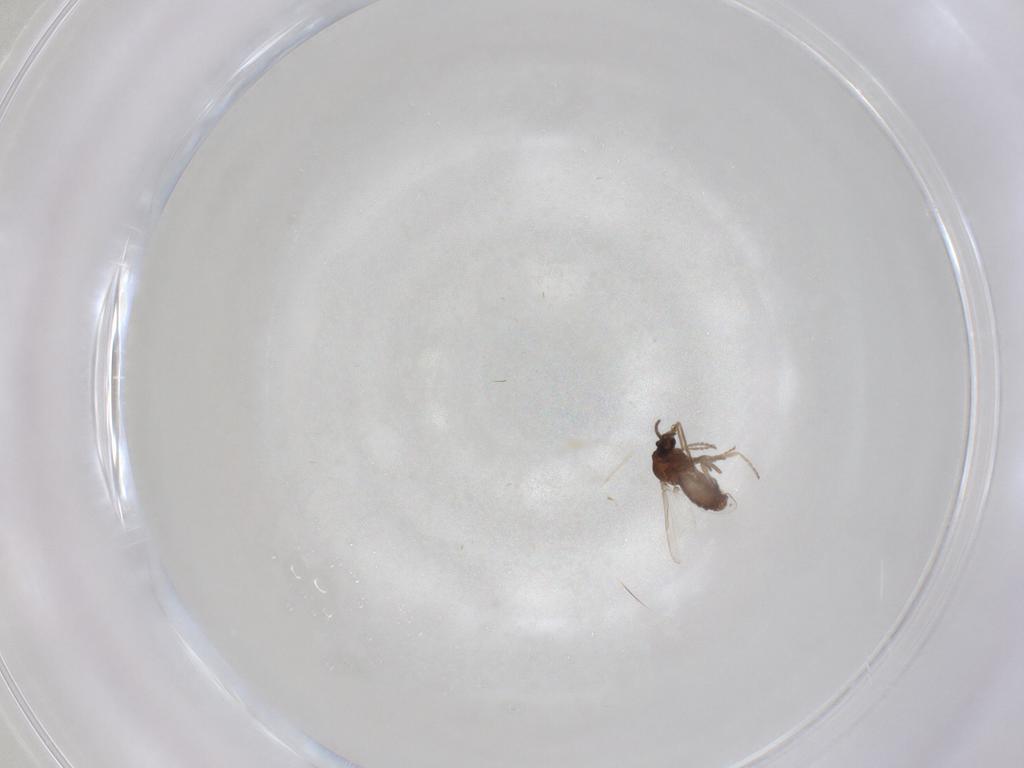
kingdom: Animalia
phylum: Arthropoda
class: Insecta
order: Diptera
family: Ceratopogonidae
